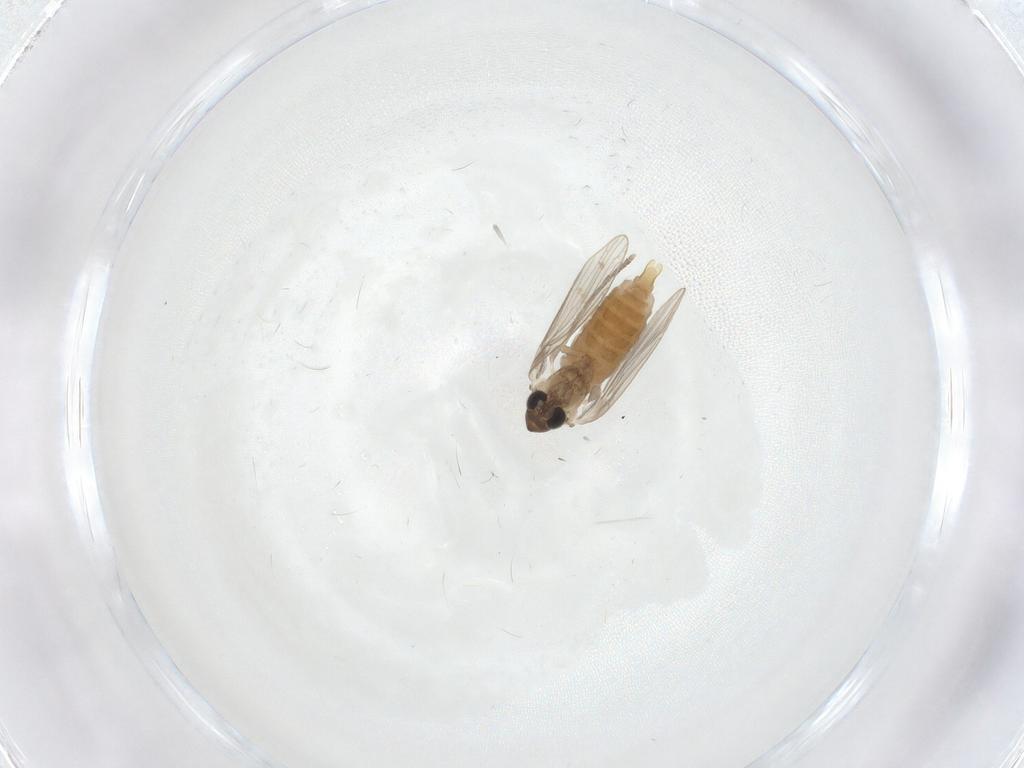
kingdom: Animalia
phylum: Arthropoda
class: Insecta
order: Diptera
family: Psychodidae
